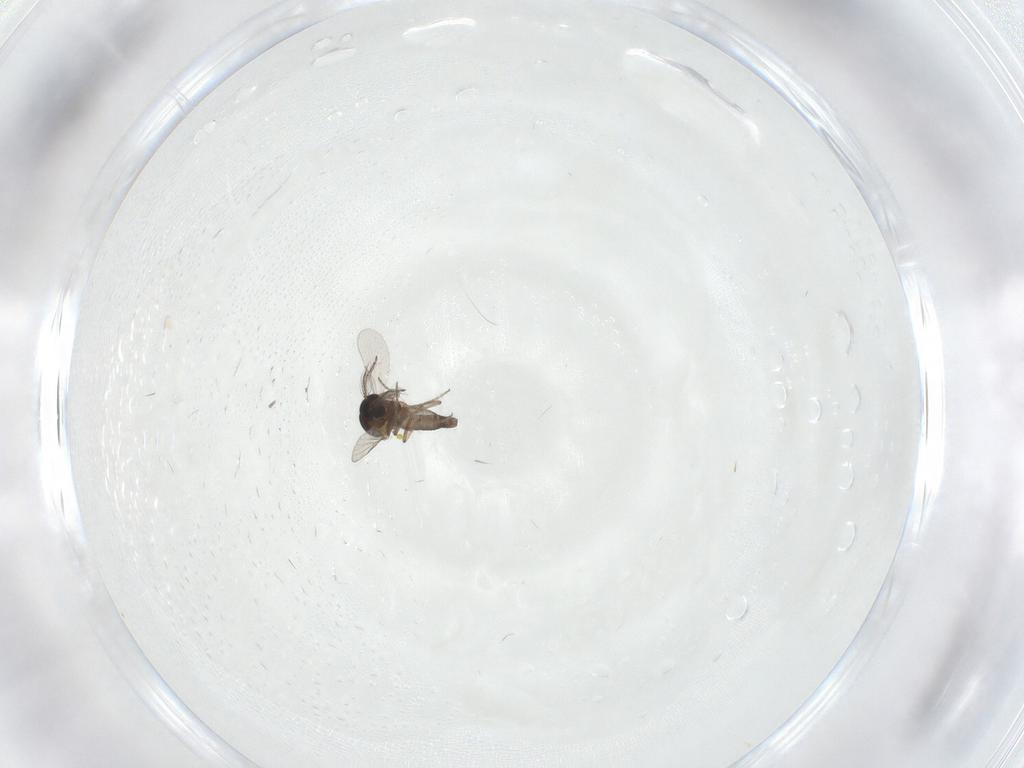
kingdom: Animalia
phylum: Arthropoda
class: Insecta
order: Diptera
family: Ceratopogonidae
